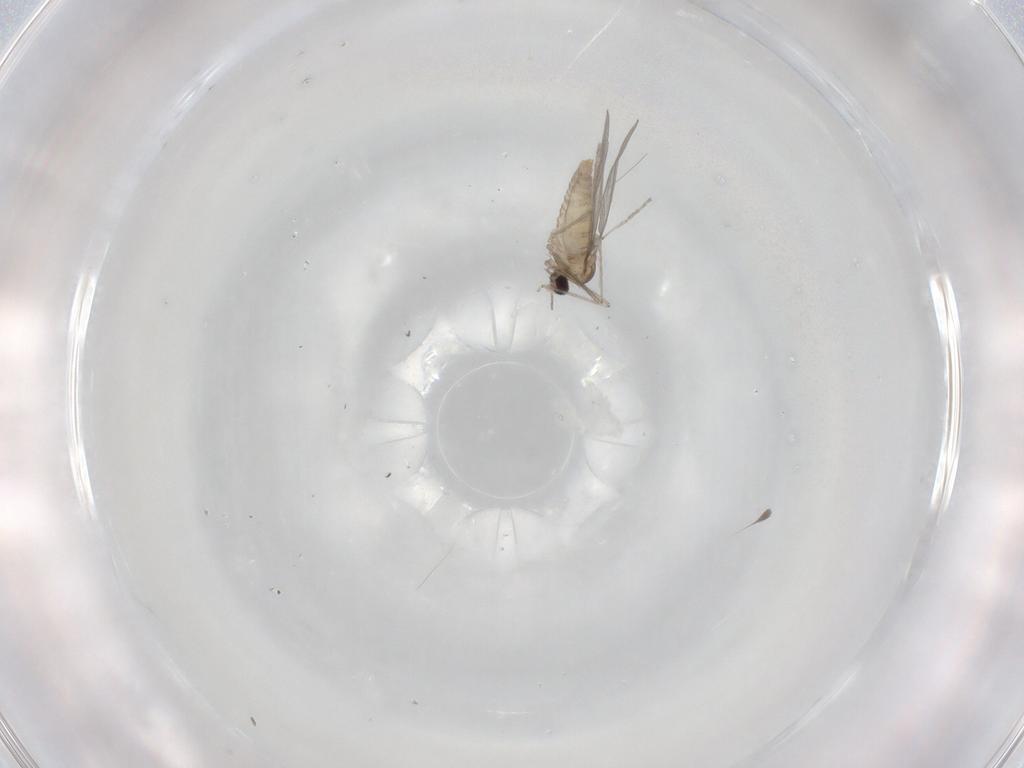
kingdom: Animalia
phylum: Arthropoda
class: Insecta
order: Diptera
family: Cecidomyiidae
